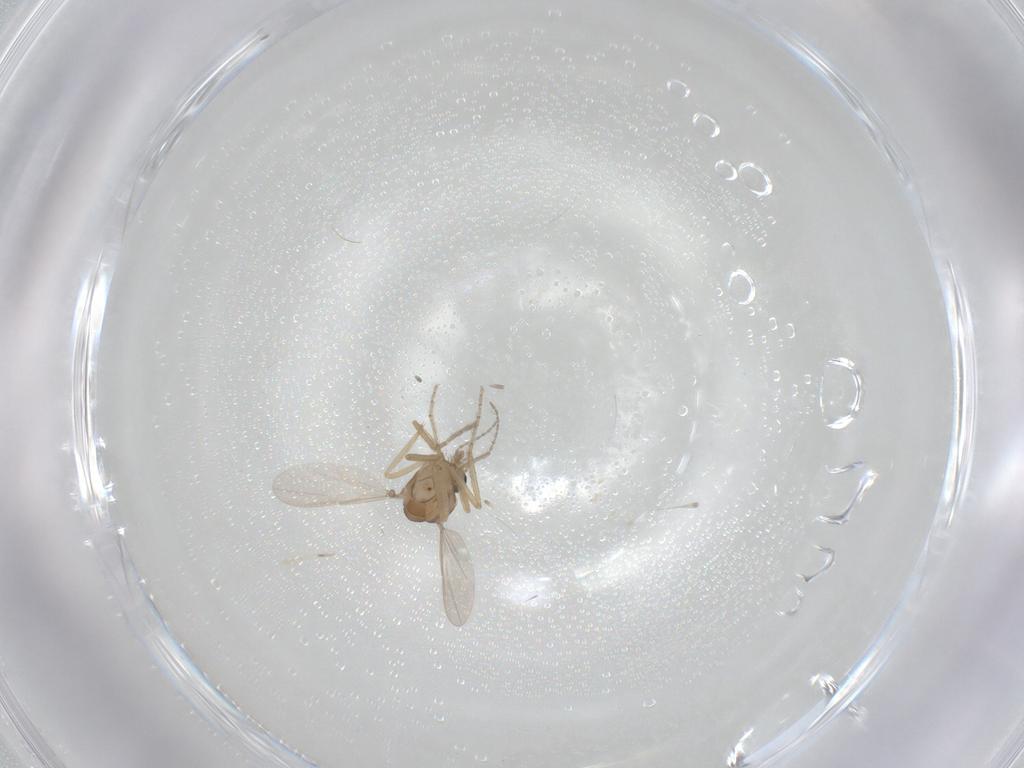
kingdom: Animalia
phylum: Arthropoda
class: Insecta
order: Diptera
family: Ceratopogonidae
